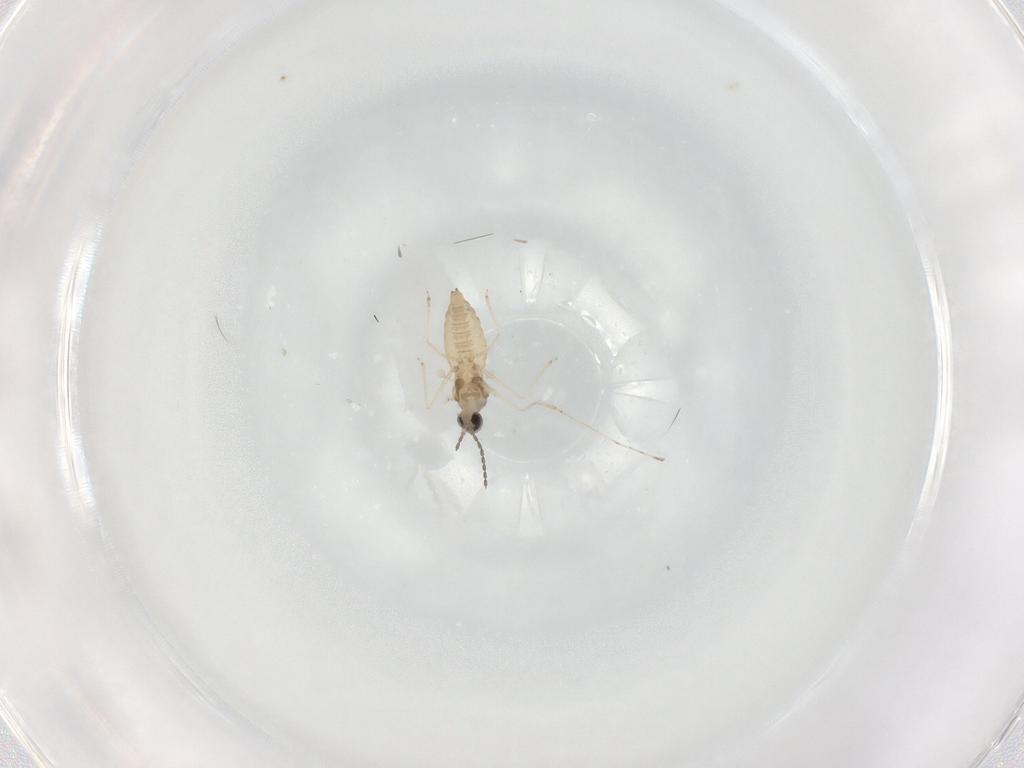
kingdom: Animalia
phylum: Arthropoda
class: Insecta
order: Diptera
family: Cecidomyiidae
